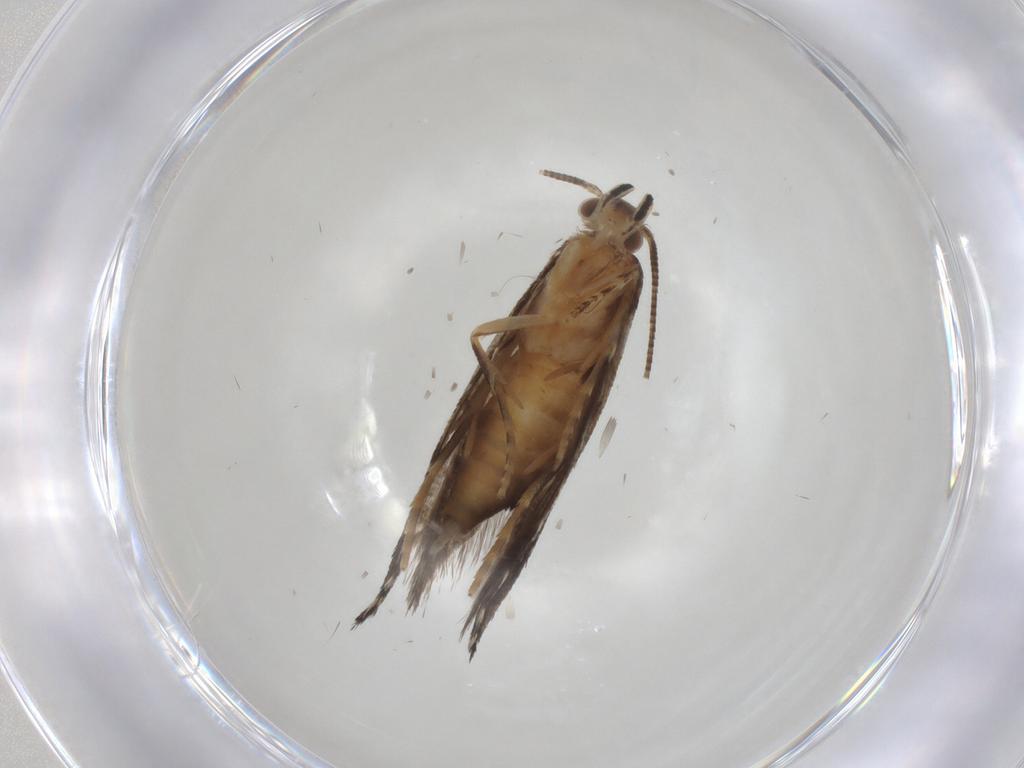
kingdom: Animalia
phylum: Arthropoda
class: Insecta
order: Lepidoptera
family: Tineidae
